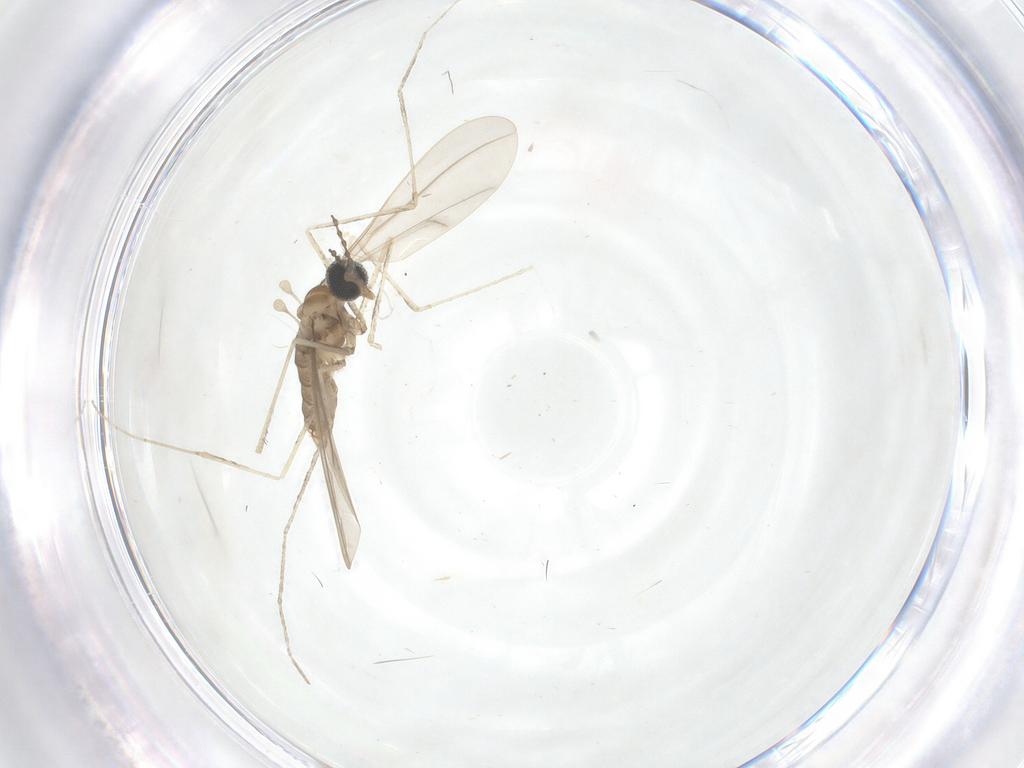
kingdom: Animalia
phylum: Arthropoda
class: Insecta
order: Diptera
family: Cecidomyiidae
